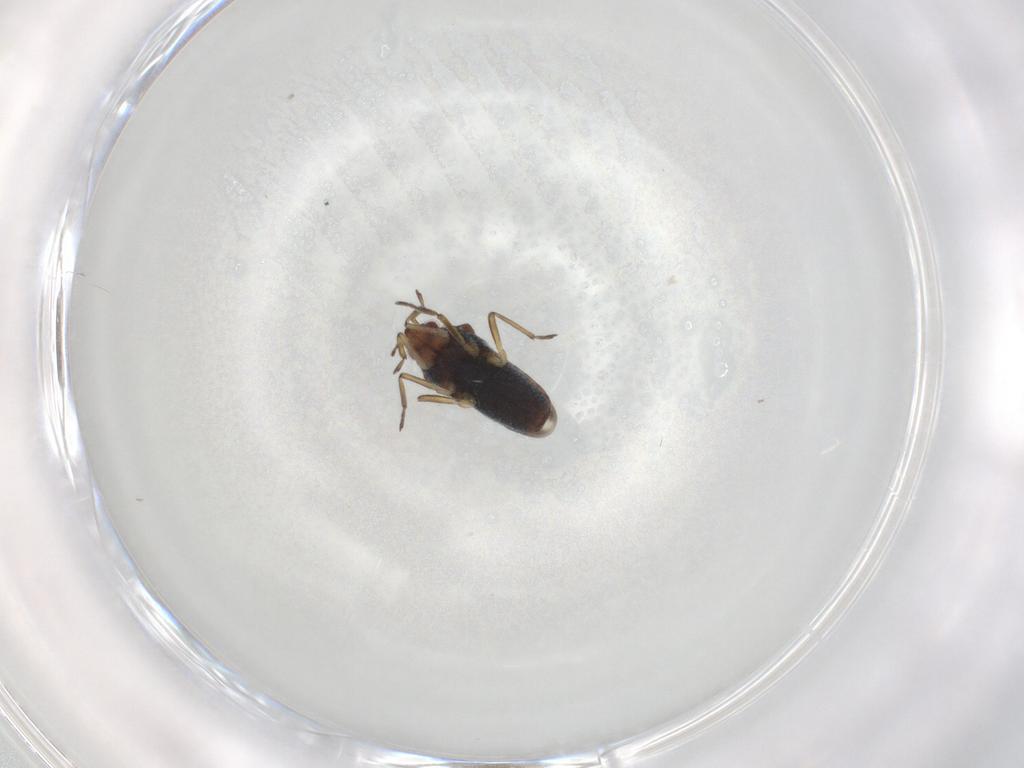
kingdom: Animalia
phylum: Arthropoda
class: Insecta
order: Hemiptera
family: Veliidae
